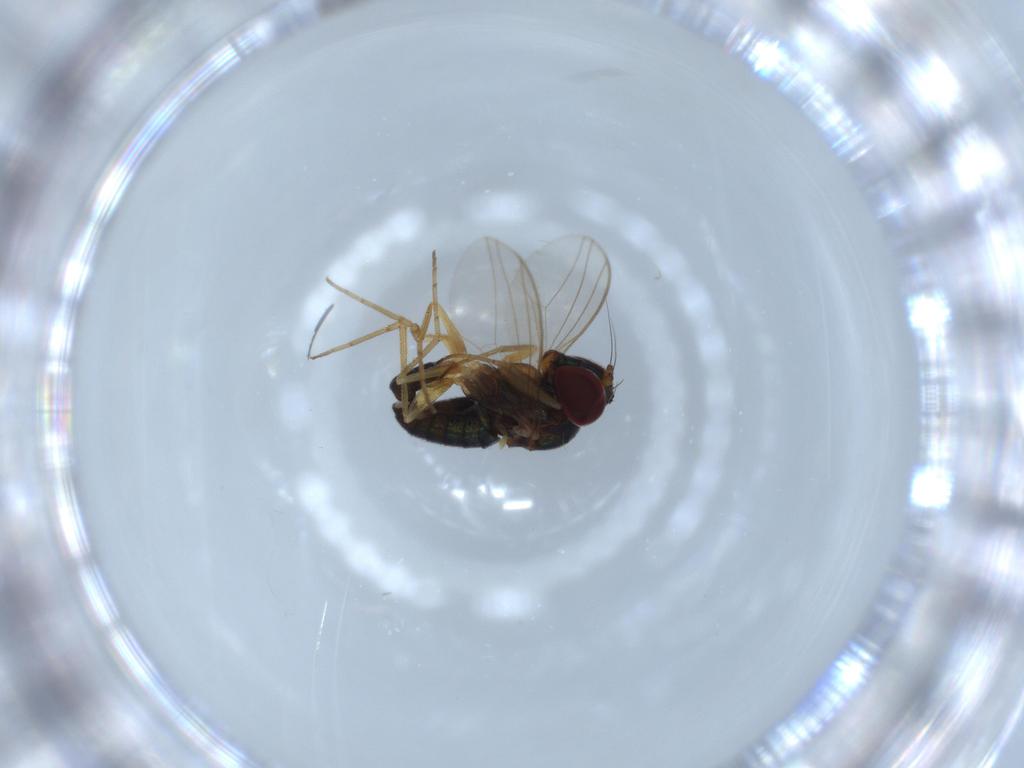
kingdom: Animalia
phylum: Arthropoda
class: Insecta
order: Diptera
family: Dolichopodidae
